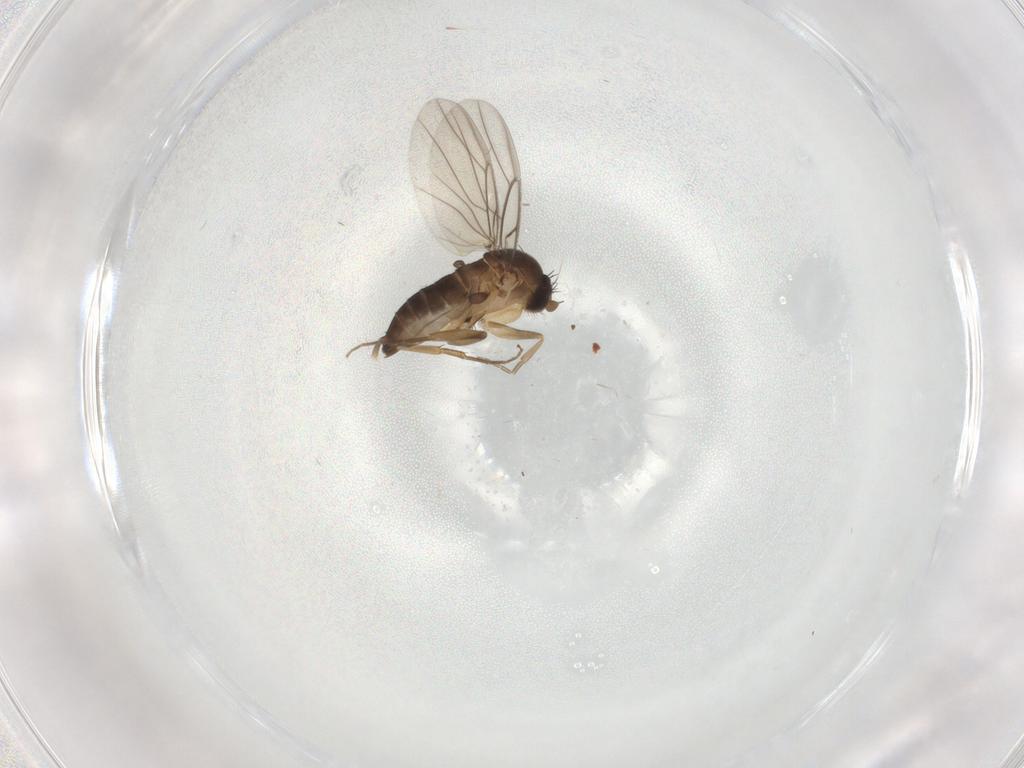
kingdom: Animalia
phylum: Arthropoda
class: Insecta
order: Diptera
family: Phoridae
